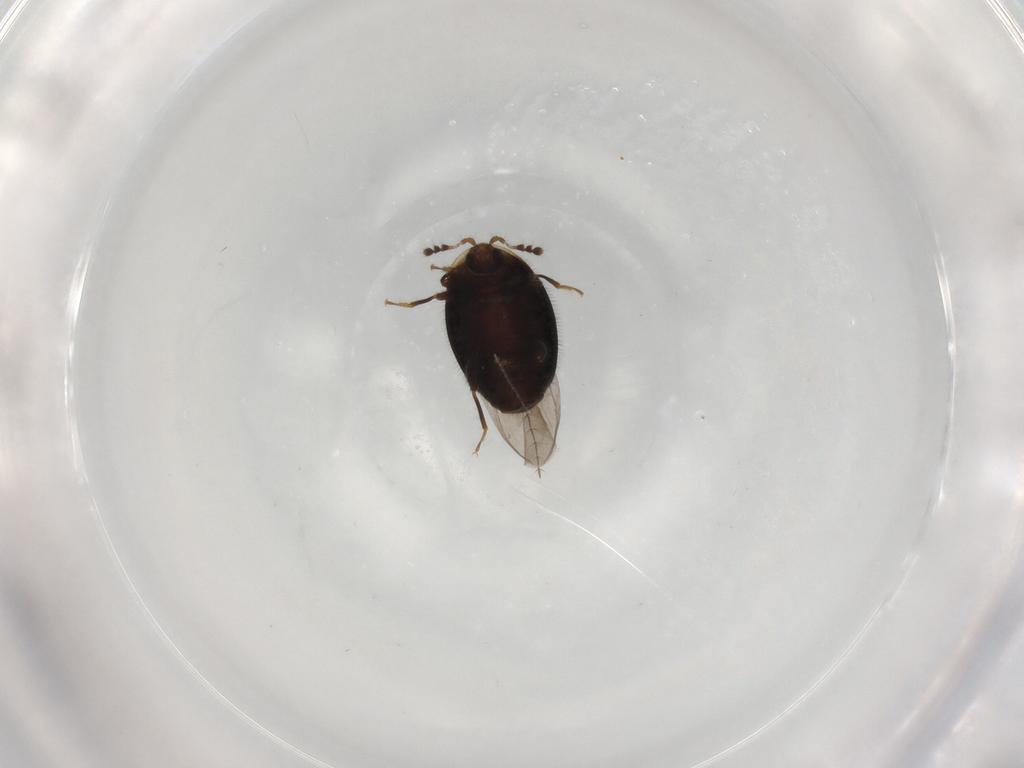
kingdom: Animalia
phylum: Arthropoda
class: Insecta
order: Coleoptera
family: Corylophidae
